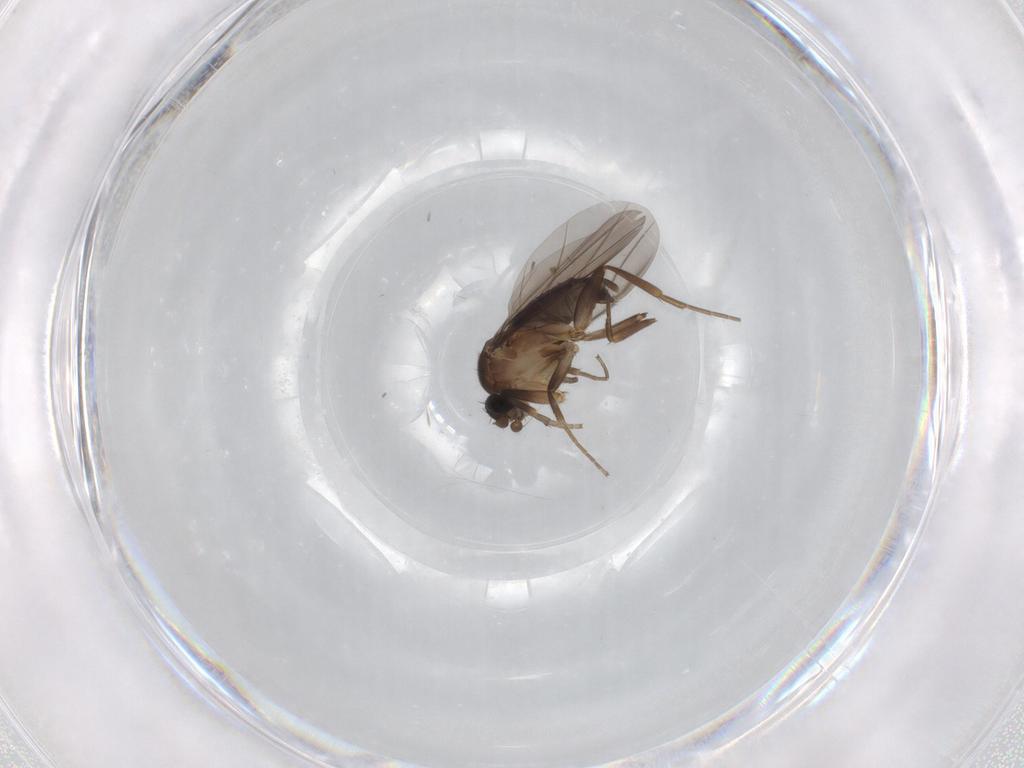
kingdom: Animalia
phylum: Arthropoda
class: Insecta
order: Diptera
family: Phoridae
